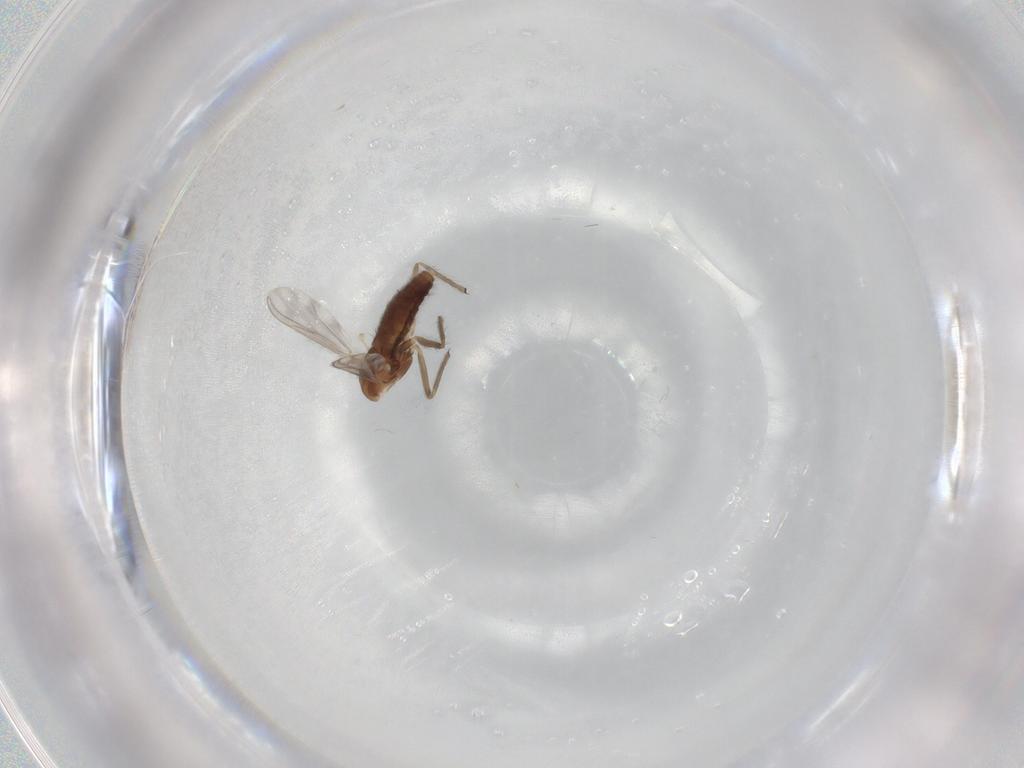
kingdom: Animalia
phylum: Arthropoda
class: Insecta
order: Diptera
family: Chironomidae
